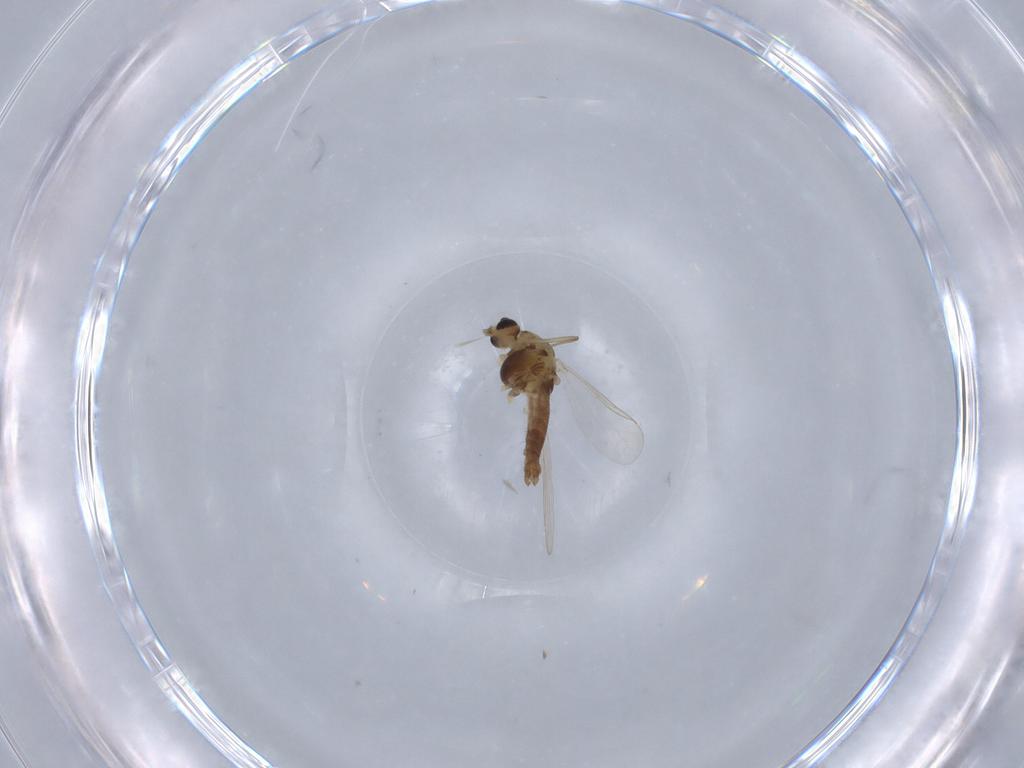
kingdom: Animalia
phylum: Arthropoda
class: Insecta
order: Diptera
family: Chironomidae
